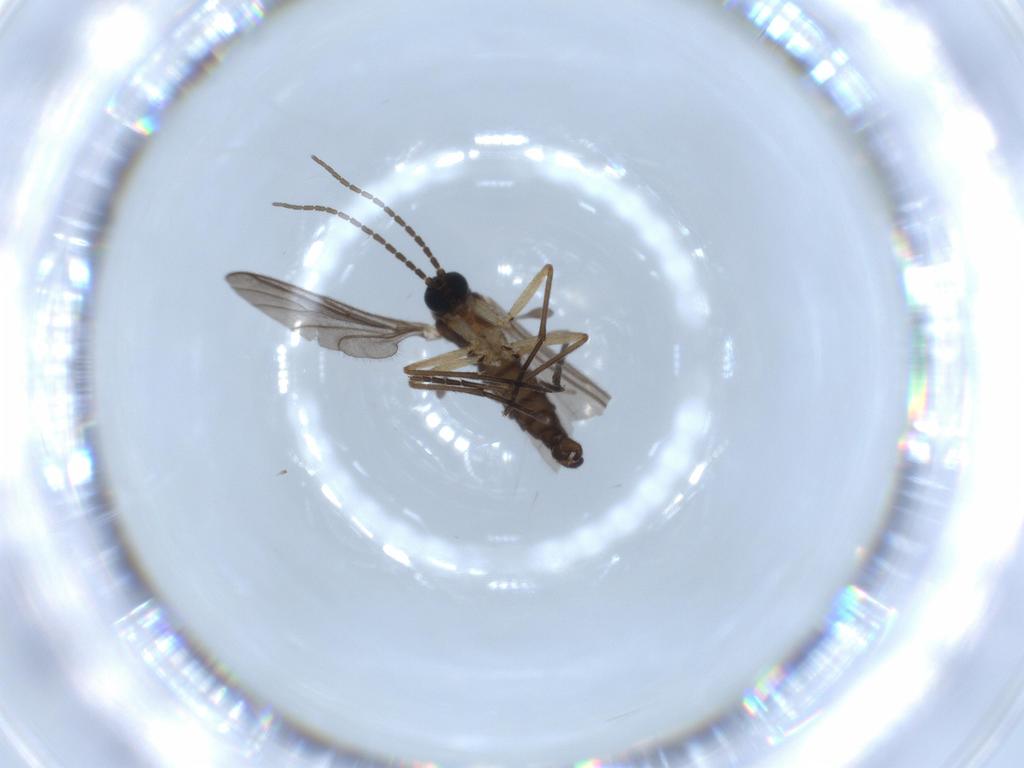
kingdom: Animalia
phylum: Arthropoda
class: Insecta
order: Diptera
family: Sciaridae
